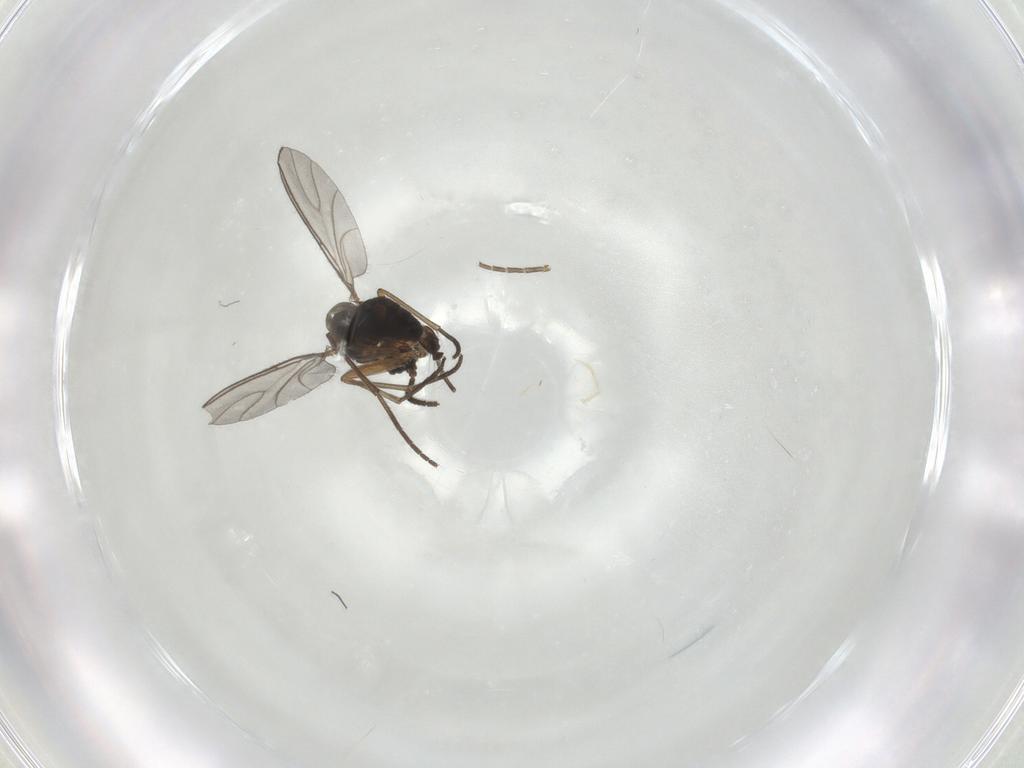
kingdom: Animalia
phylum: Arthropoda
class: Insecta
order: Diptera
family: Sciaridae
